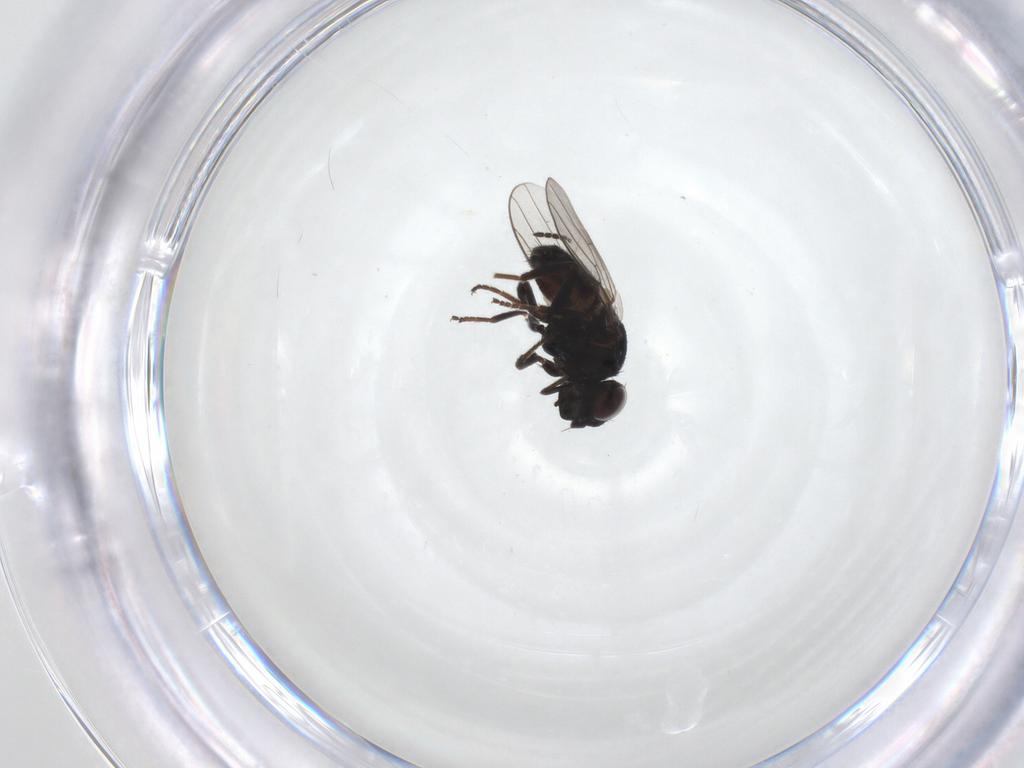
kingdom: Animalia
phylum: Arthropoda
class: Insecta
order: Diptera
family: Chloropidae
